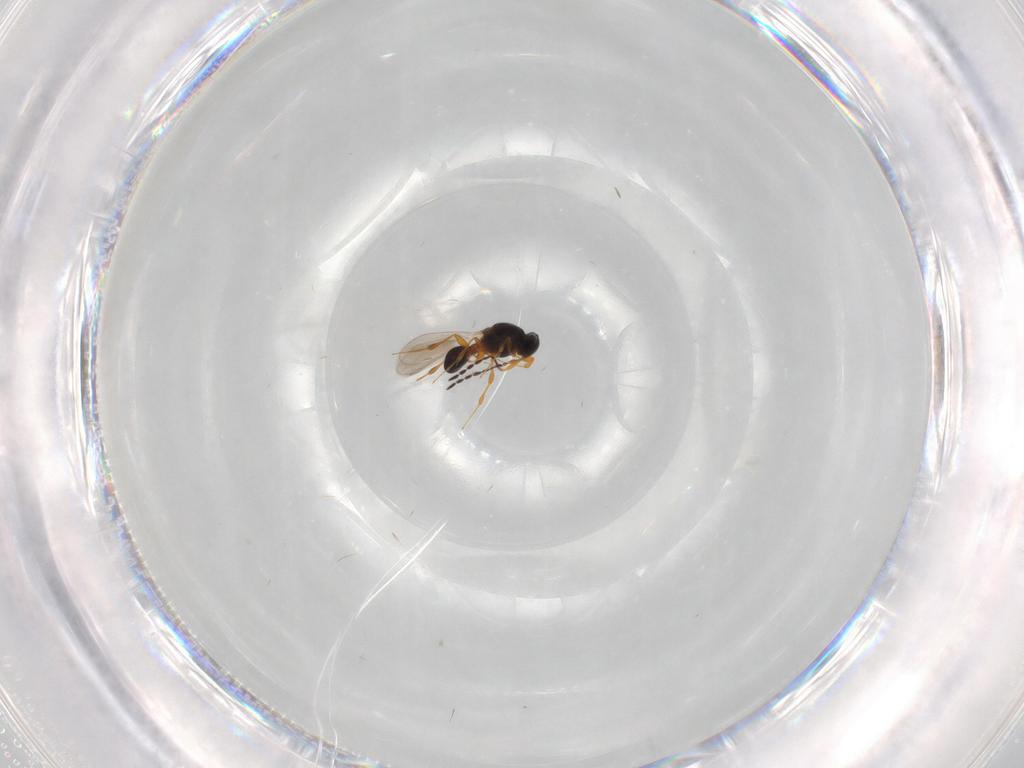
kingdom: Animalia
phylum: Arthropoda
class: Insecta
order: Hymenoptera
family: Platygastridae
